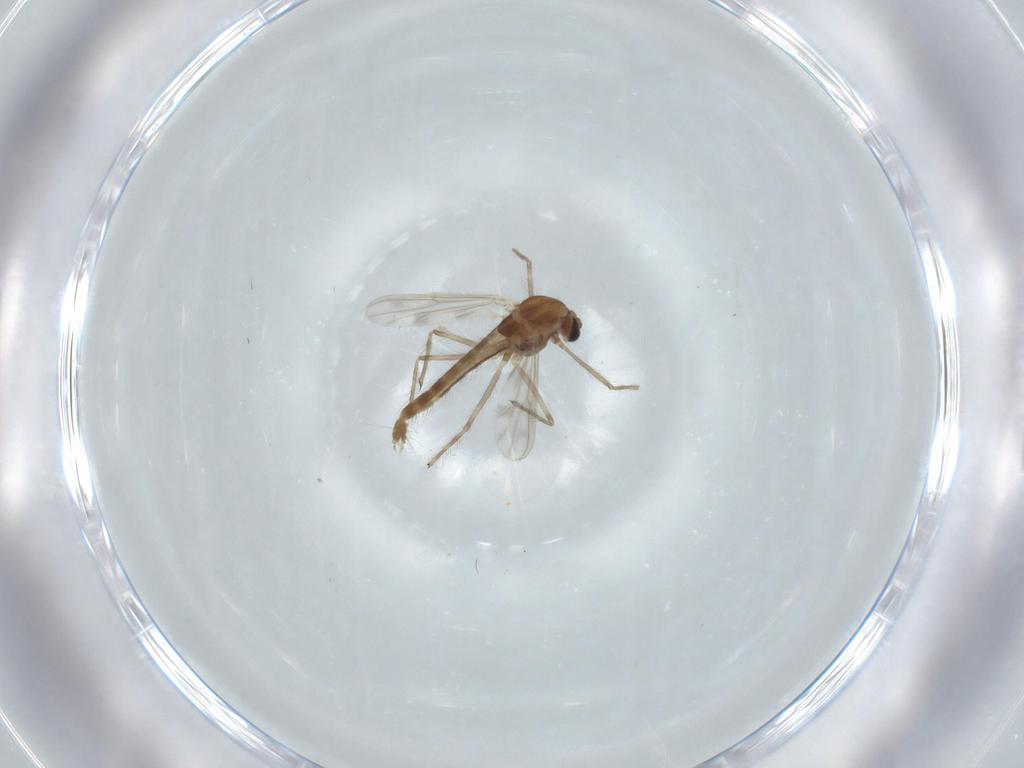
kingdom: Animalia
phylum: Arthropoda
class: Insecta
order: Diptera
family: Chironomidae
